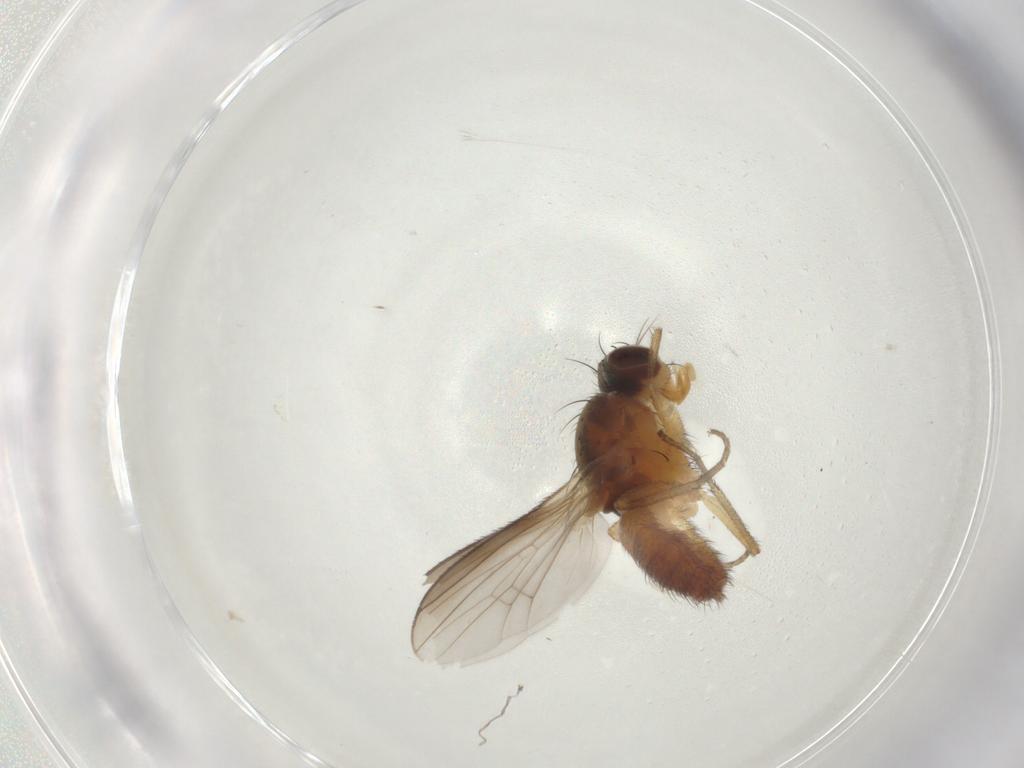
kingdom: Animalia
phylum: Arthropoda
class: Insecta
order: Diptera
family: Heleomyzidae
